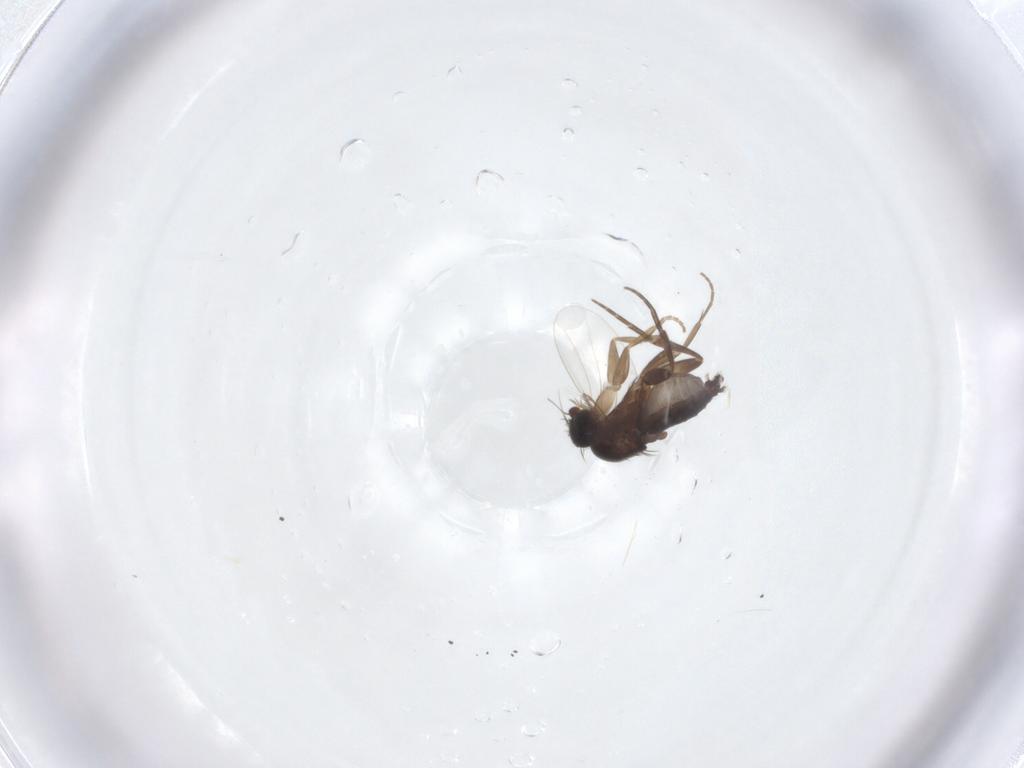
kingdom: Animalia
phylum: Arthropoda
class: Insecta
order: Diptera
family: Phoridae
